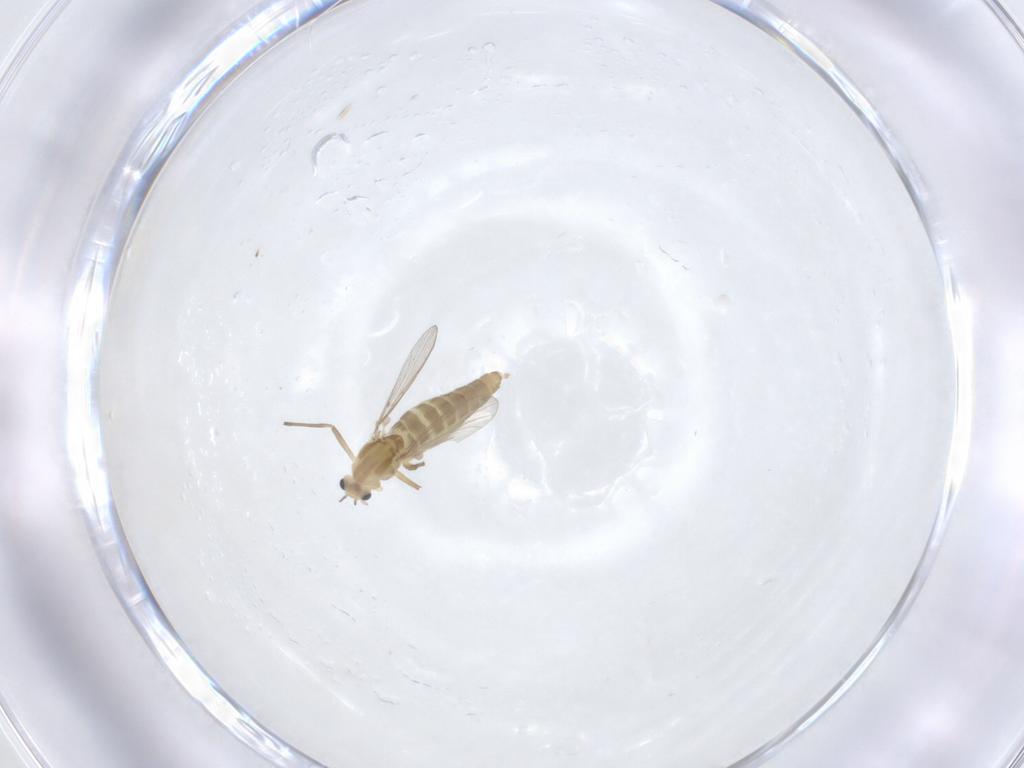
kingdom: Animalia
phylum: Arthropoda
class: Insecta
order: Diptera
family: Chironomidae
